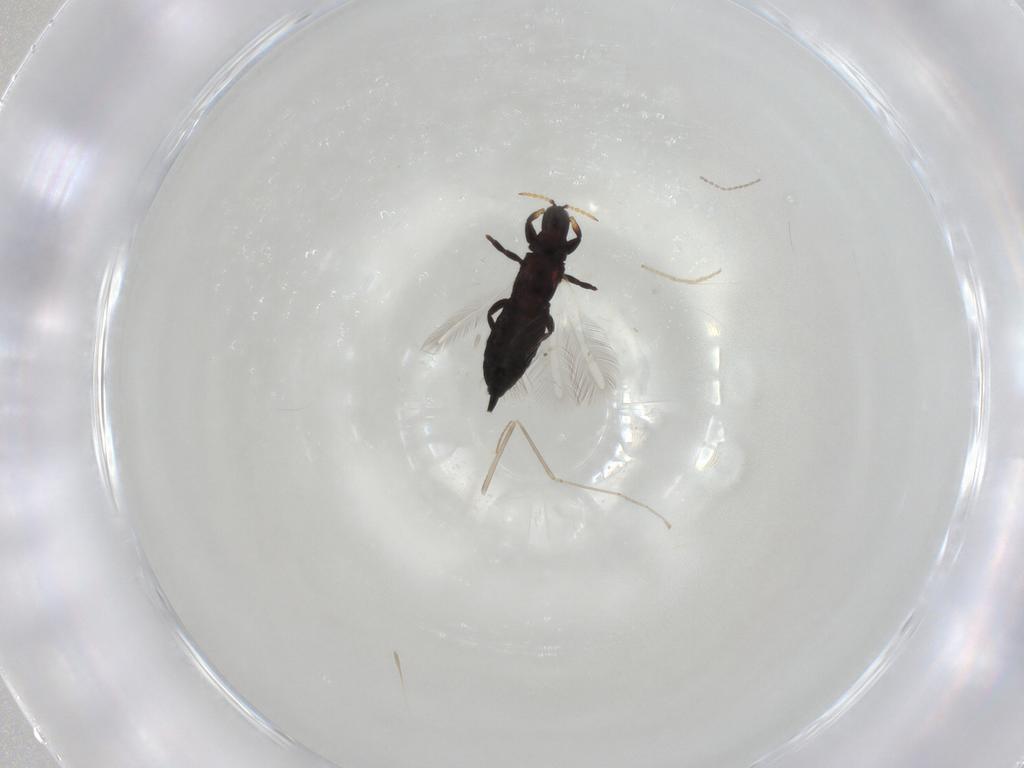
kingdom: Animalia
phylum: Arthropoda
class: Insecta
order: Thysanoptera
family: Phlaeothripidae
